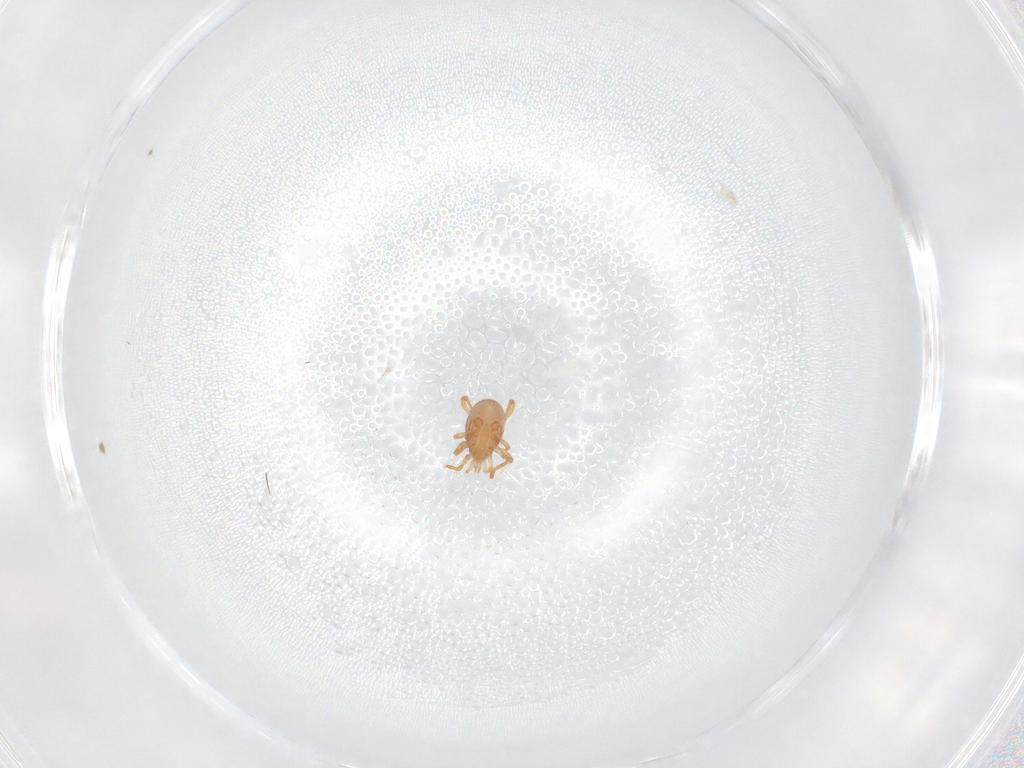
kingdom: Animalia
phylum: Arthropoda
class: Arachnida
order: Mesostigmata
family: Parasitidae
